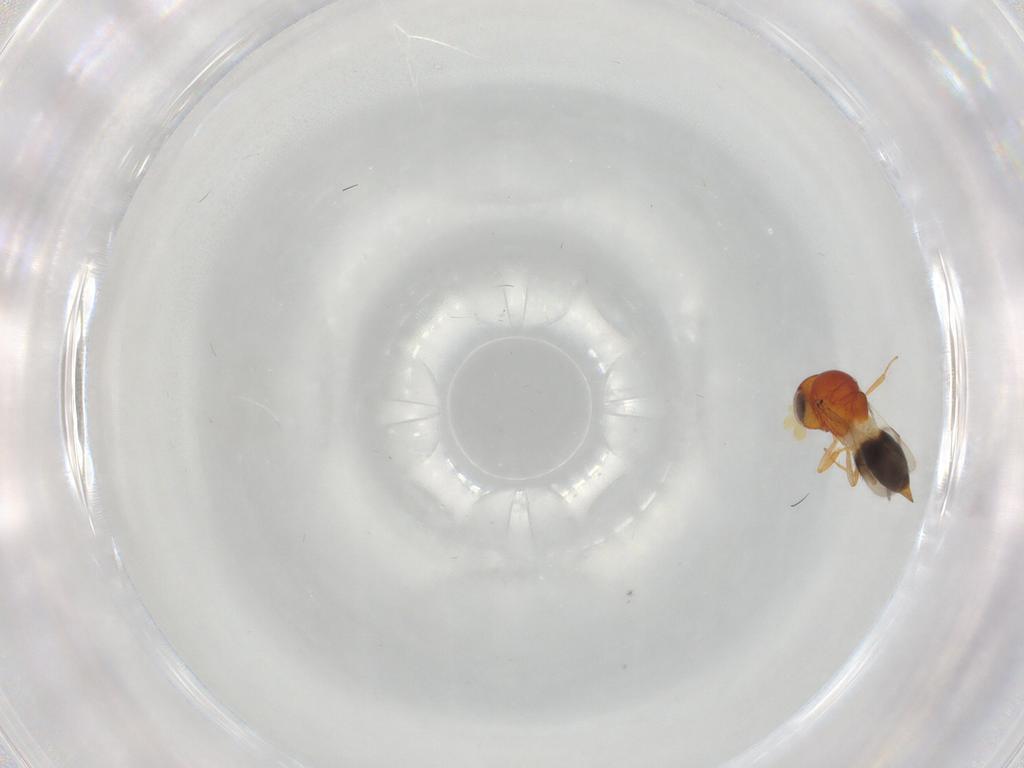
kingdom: Animalia
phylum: Arthropoda
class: Insecta
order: Hymenoptera
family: Scelionidae
